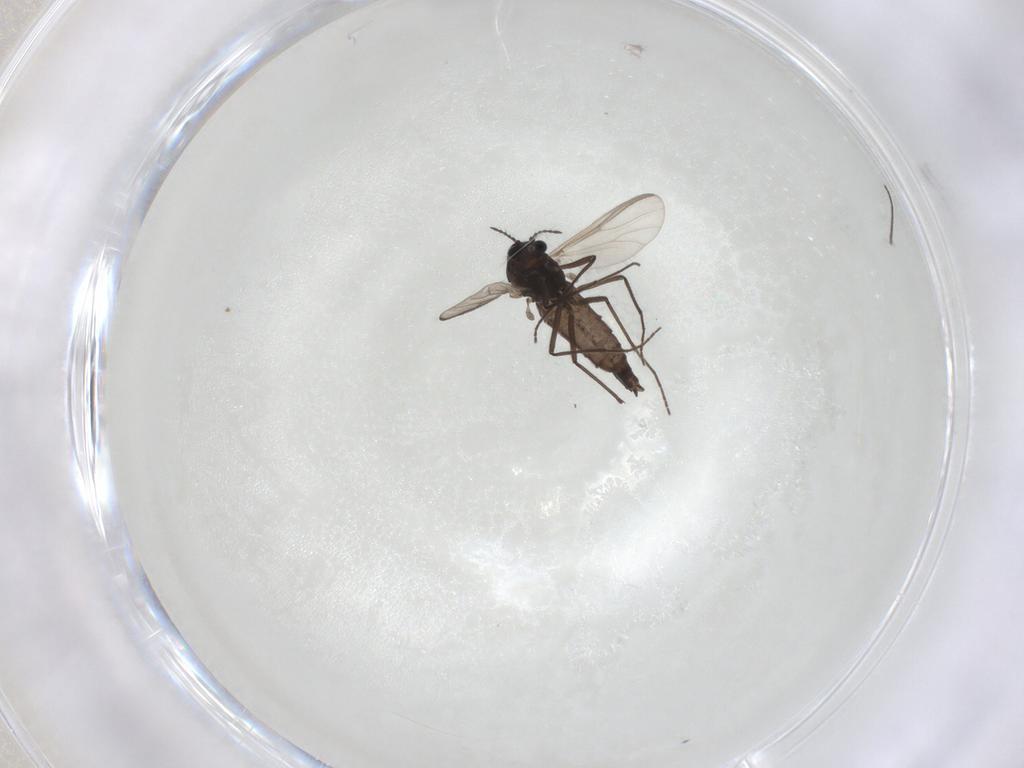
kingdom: Animalia
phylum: Arthropoda
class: Insecta
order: Diptera
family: Chironomidae
